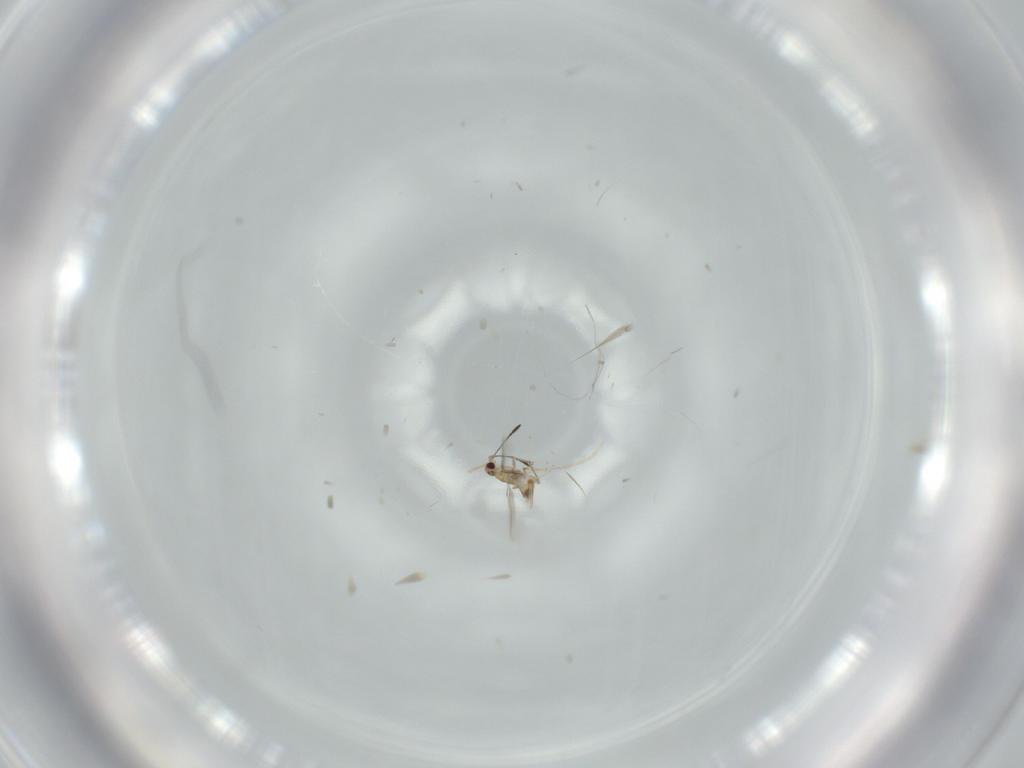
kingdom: Animalia
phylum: Arthropoda
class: Insecta
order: Hymenoptera
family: Mymaridae
